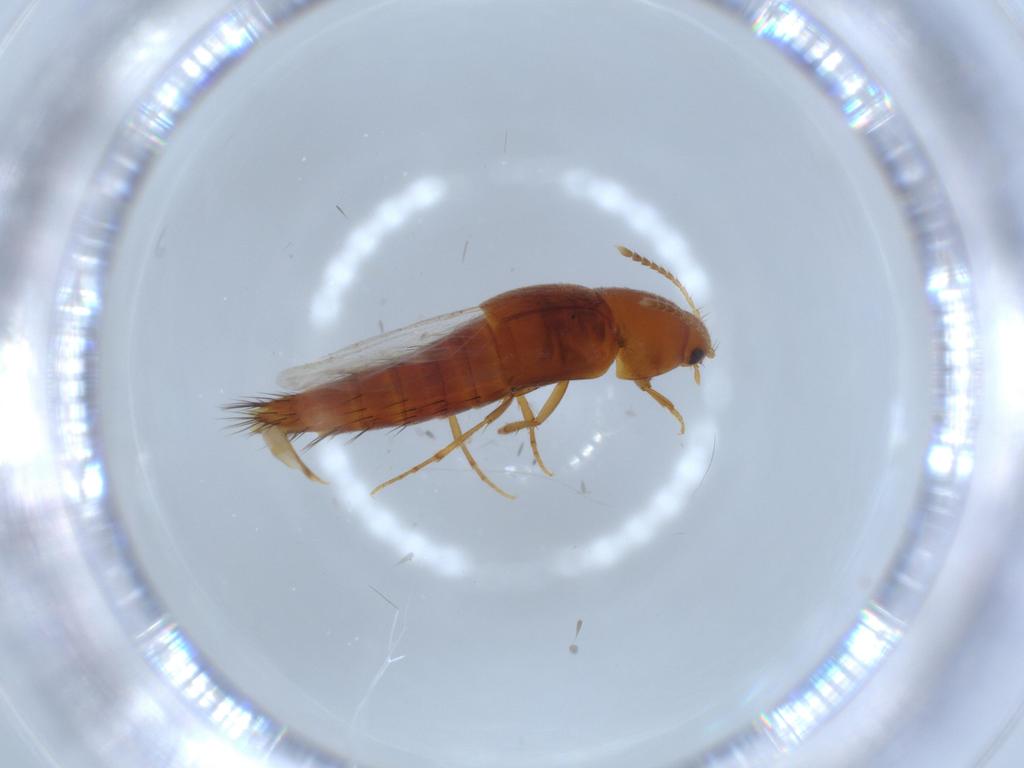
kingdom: Animalia
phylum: Arthropoda
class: Insecta
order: Coleoptera
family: Staphylinidae
